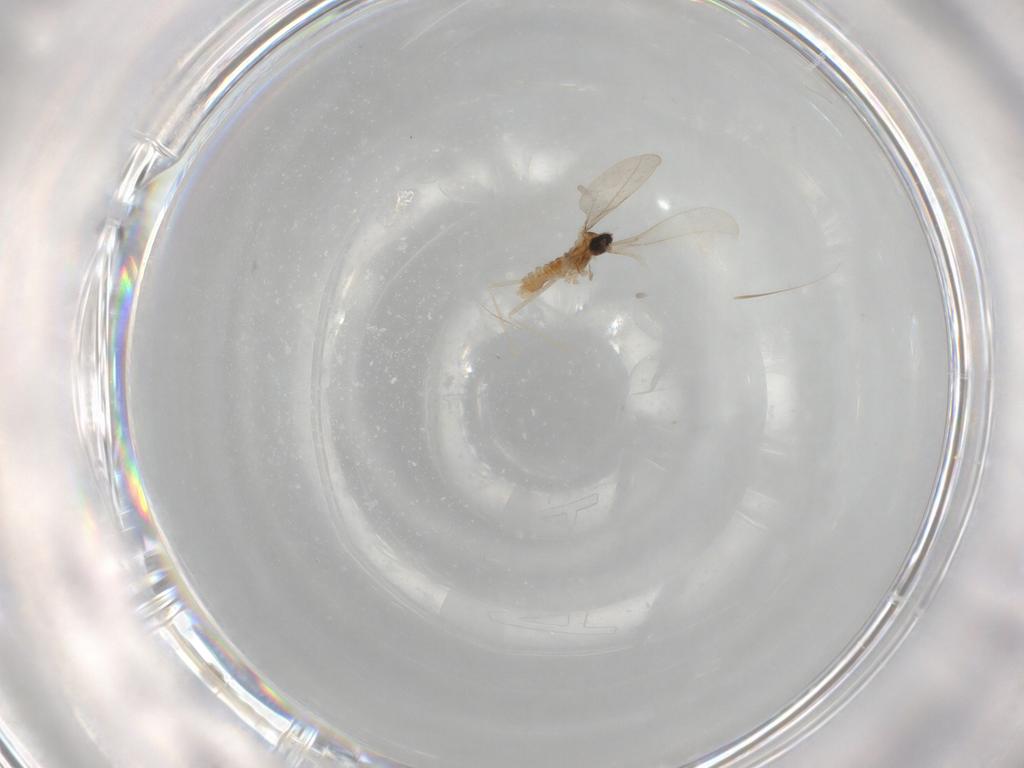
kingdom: Animalia
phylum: Arthropoda
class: Insecta
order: Diptera
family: Cecidomyiidae
